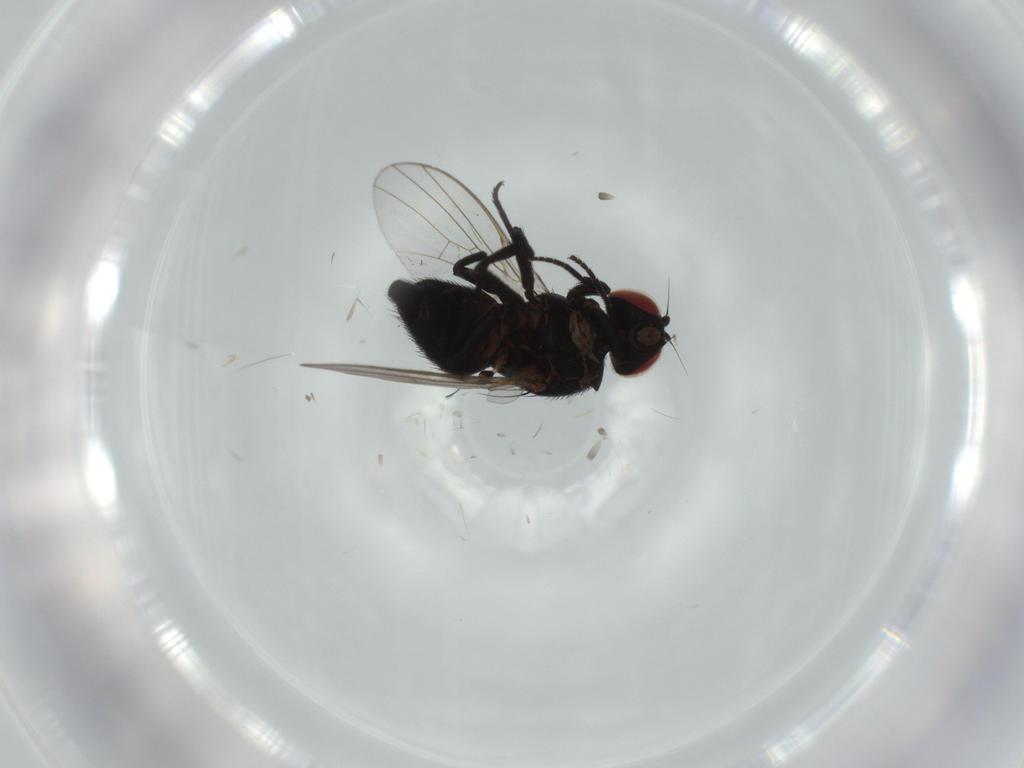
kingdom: Animalia
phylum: Arthropoda
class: Insecta
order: Diptera
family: Agromyzidae
